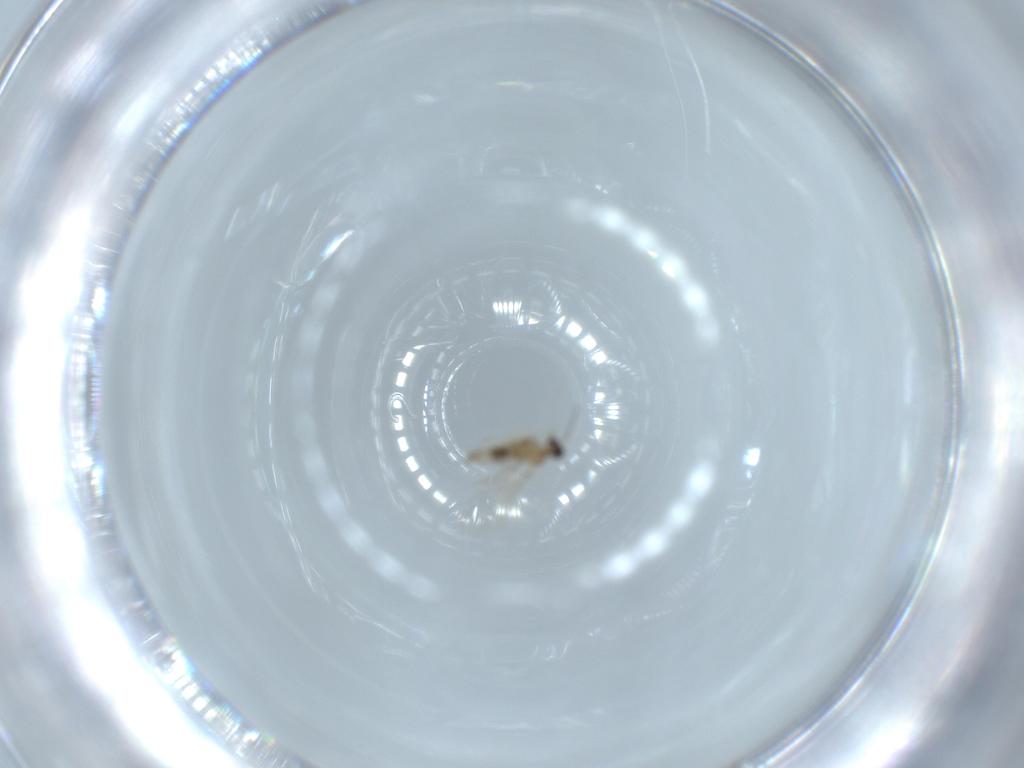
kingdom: Animalia
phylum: Arthropoda
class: Insecta
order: Diptera
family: Cecidomyiidae
